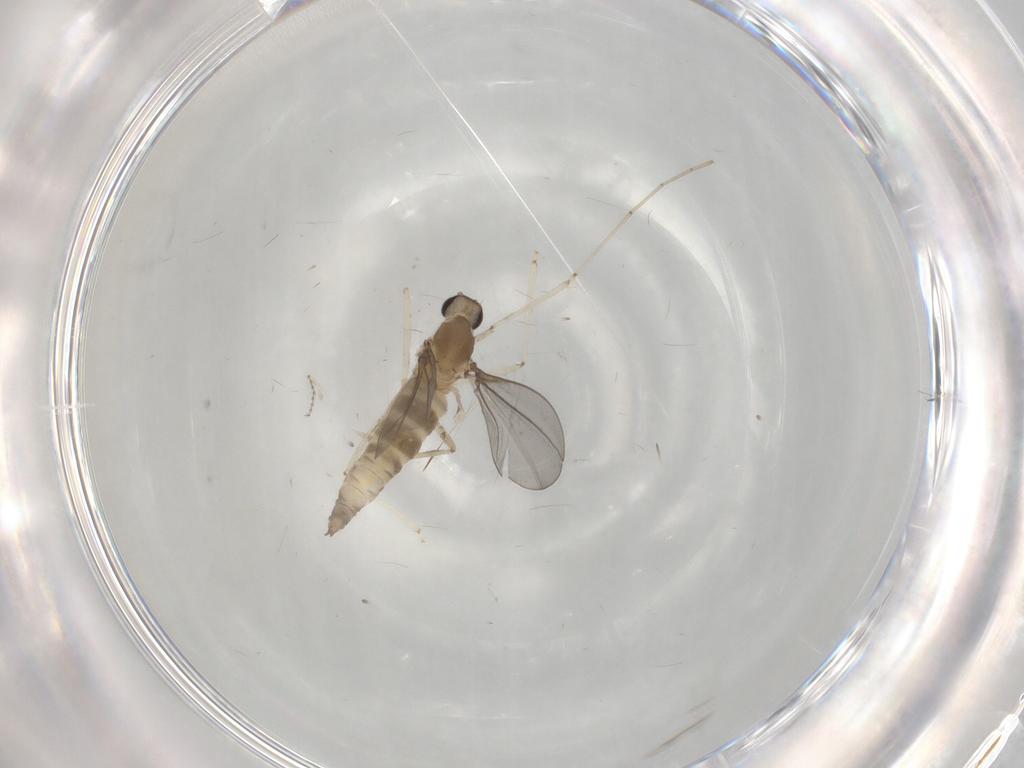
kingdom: Animalia
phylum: Arthropoda
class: Insecta
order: Diptera
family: Cecidomyiidae
